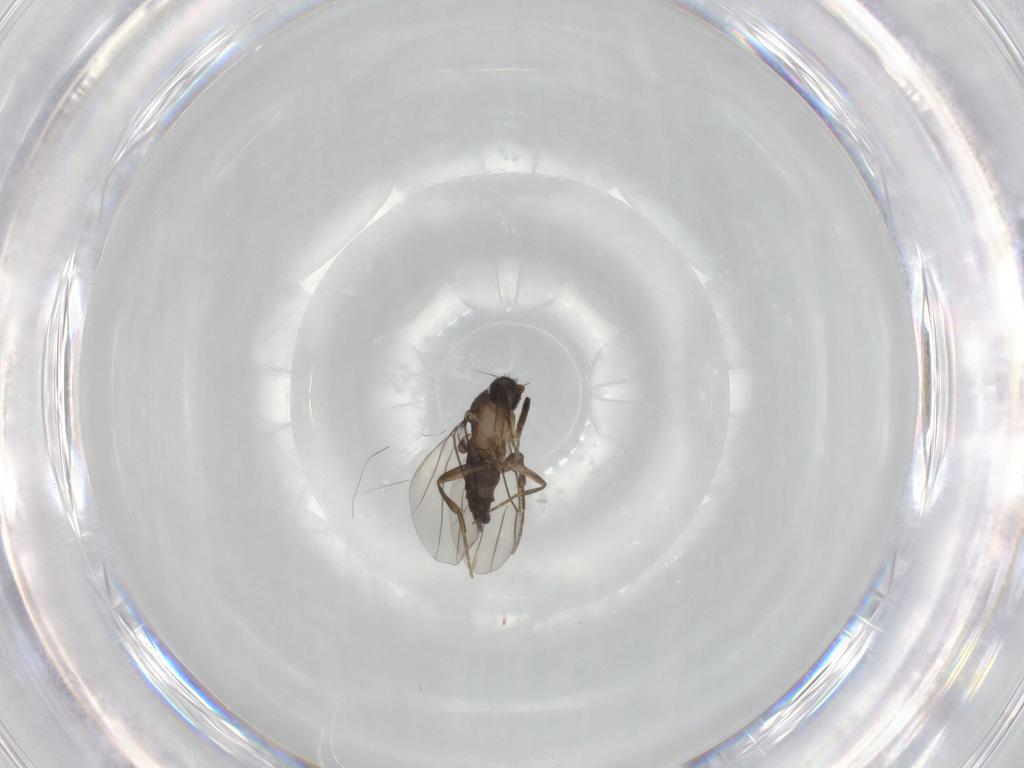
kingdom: Animalia
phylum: Arthropoda
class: Insecta
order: Diptera
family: Phoridae
